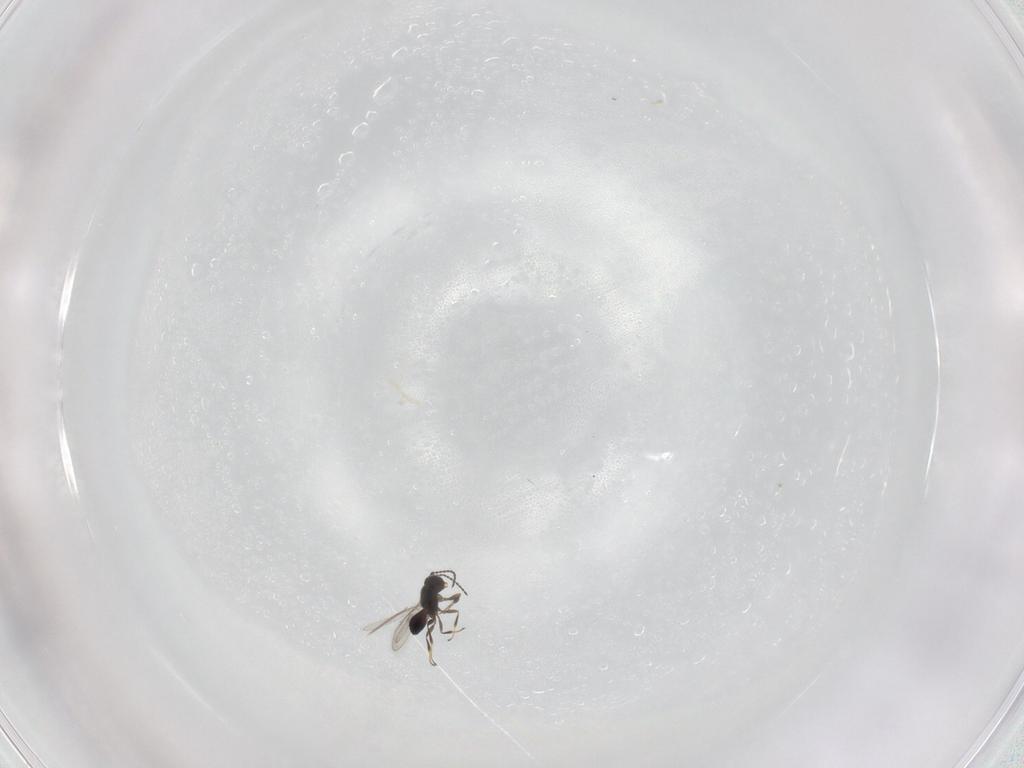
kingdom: Animalia
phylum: Arthropoda
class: Insecta
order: Hymenoptera
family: Scelionidae
